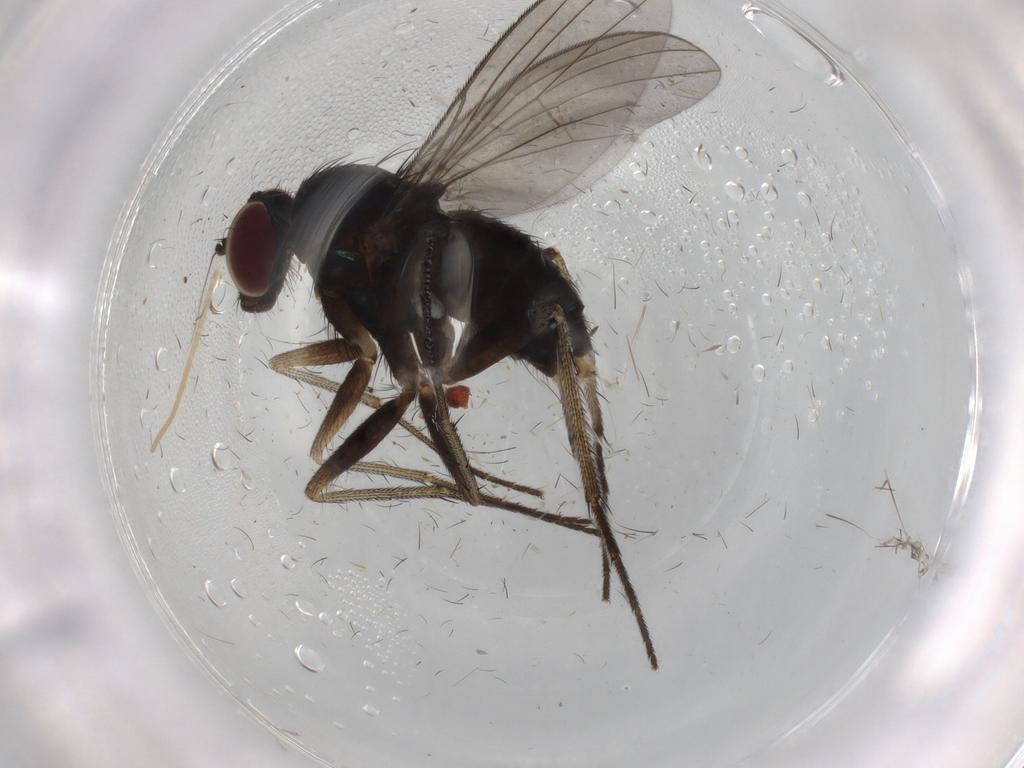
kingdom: Animalia
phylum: Arthropoda
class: Insecta
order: Diptera
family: Dolichopodidae
